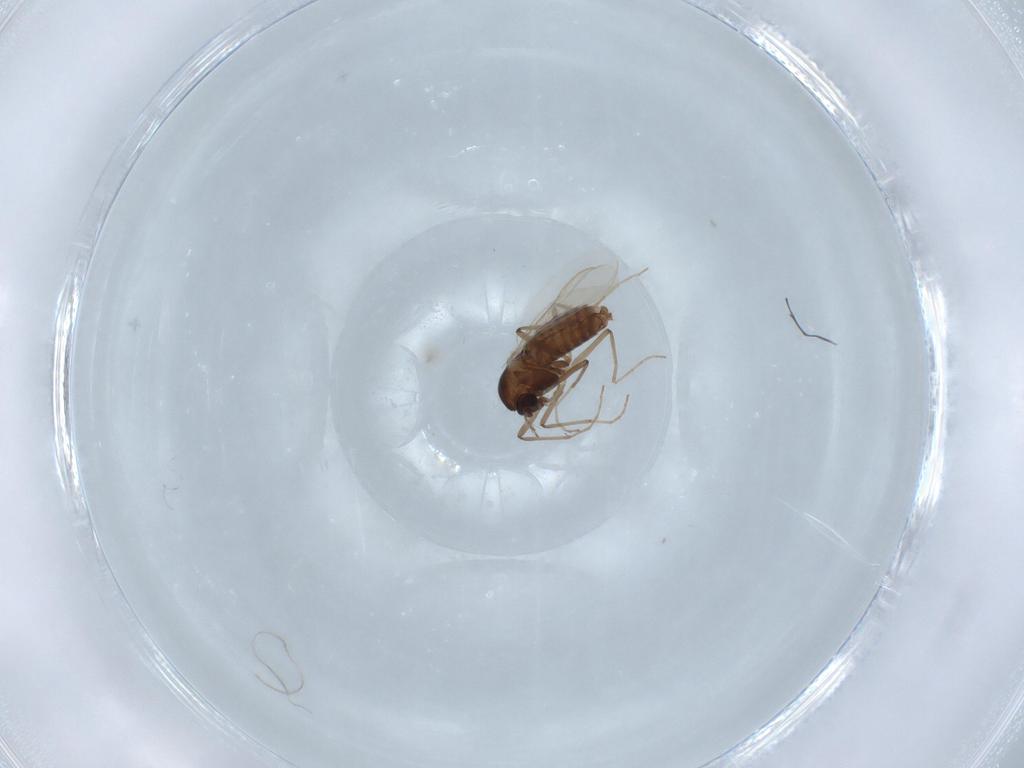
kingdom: Animalia
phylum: Arthropoda
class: Insecta
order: Diptera
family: Chironomidae
